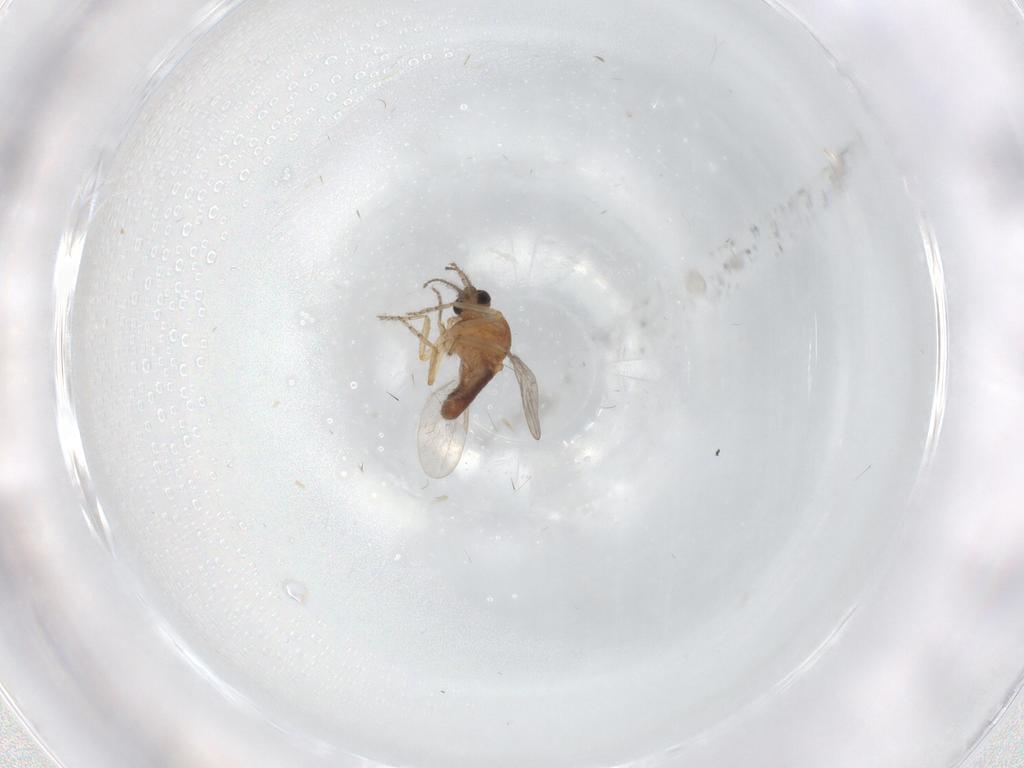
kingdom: Animalia
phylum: Arthropoda
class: Insecta
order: Diptera
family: Ceratopogonidae
